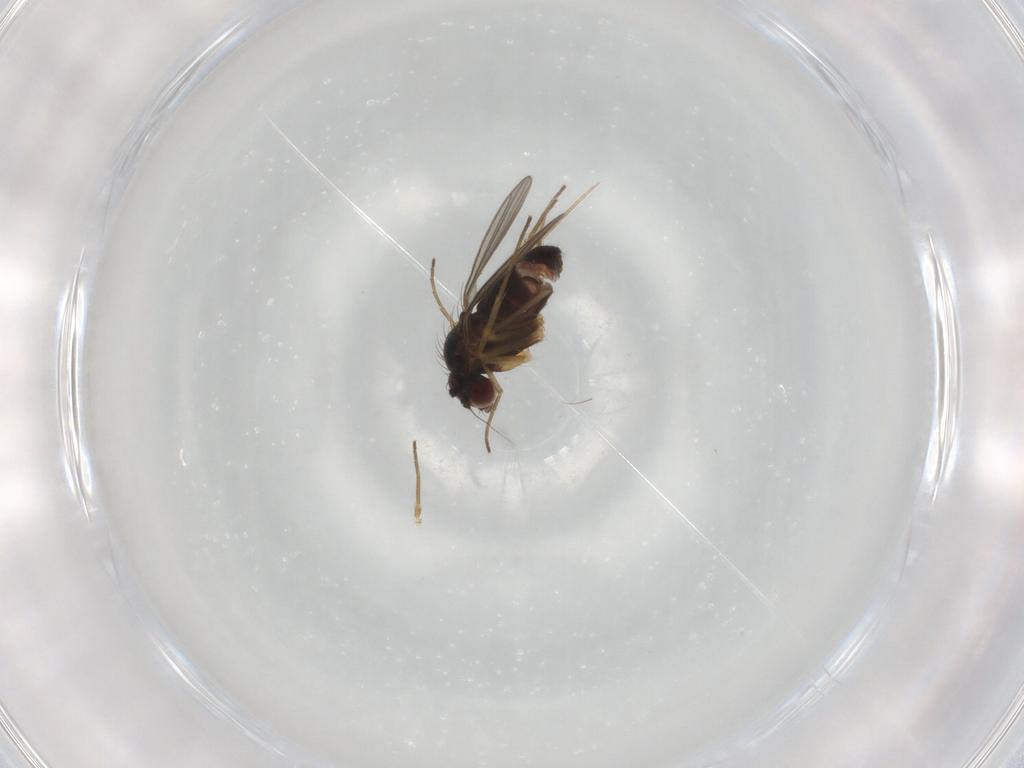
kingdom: Animalia
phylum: Arthropoda
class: Insecta
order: Diptera
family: Dolichopodidae
